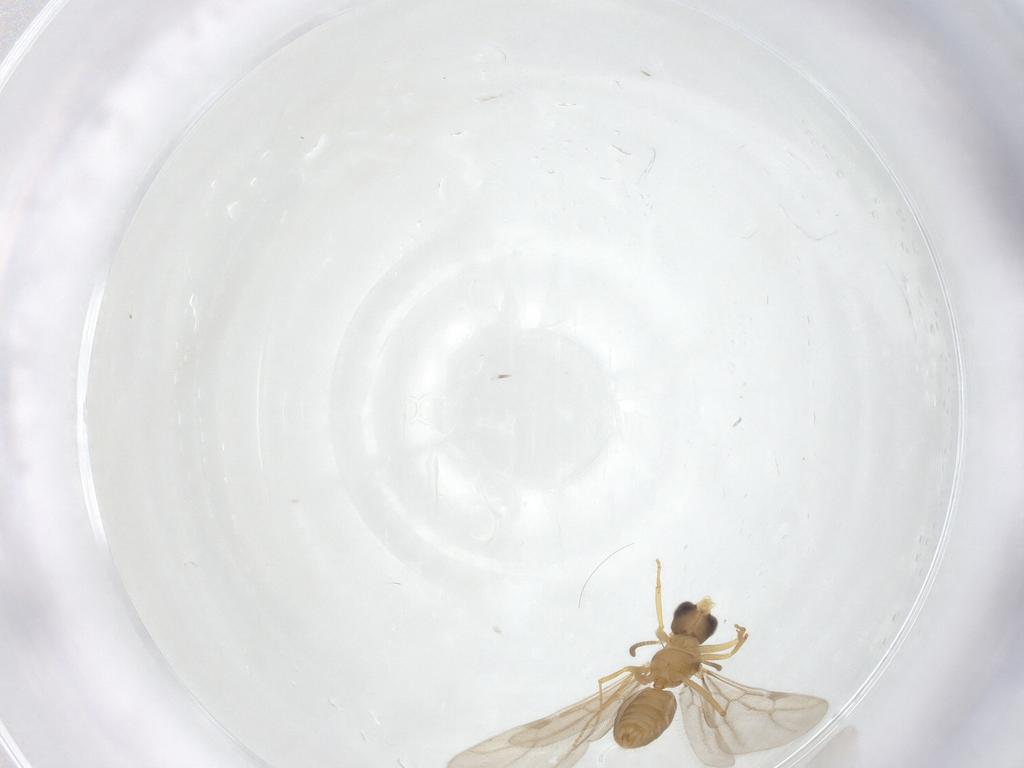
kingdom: Animalia
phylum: Arthropoda
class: Insecta
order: Hymenoptera
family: Formicidae
